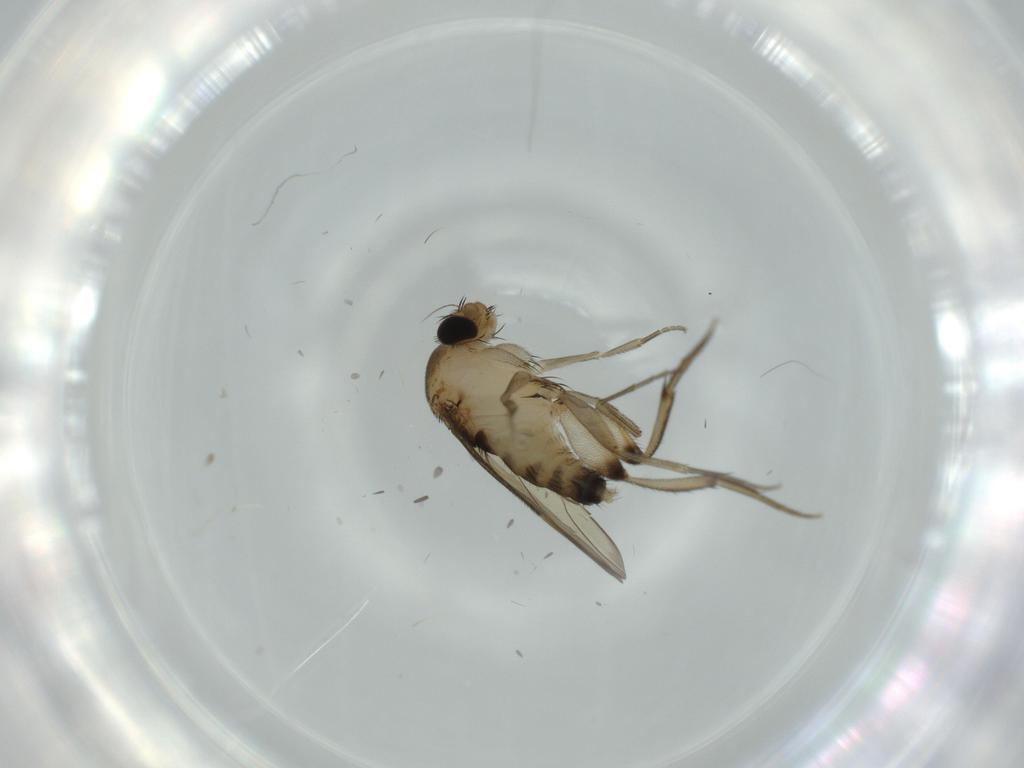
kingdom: Animalia
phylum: Arthropoda
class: Insecta
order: Diptera
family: Phoridae
